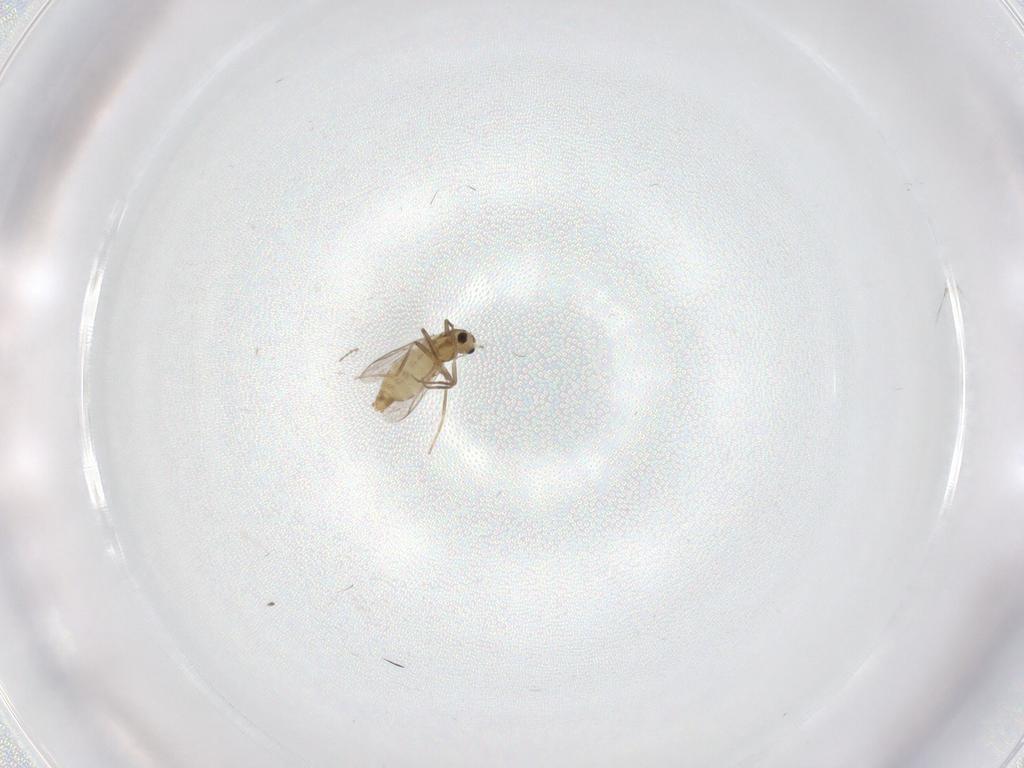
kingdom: Animalia
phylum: Arthropoda
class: Insecta
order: Diptera
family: Chironomidae
